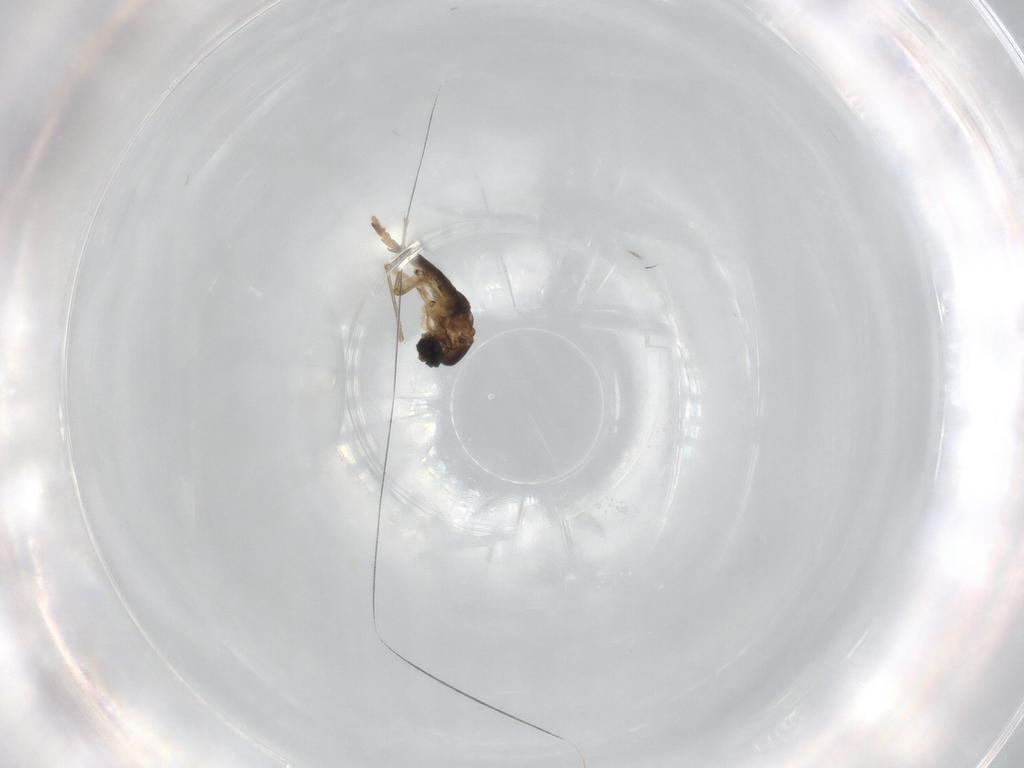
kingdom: Animalia
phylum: Arthropoda
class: Insecta
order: Diptera
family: Sciaridae
